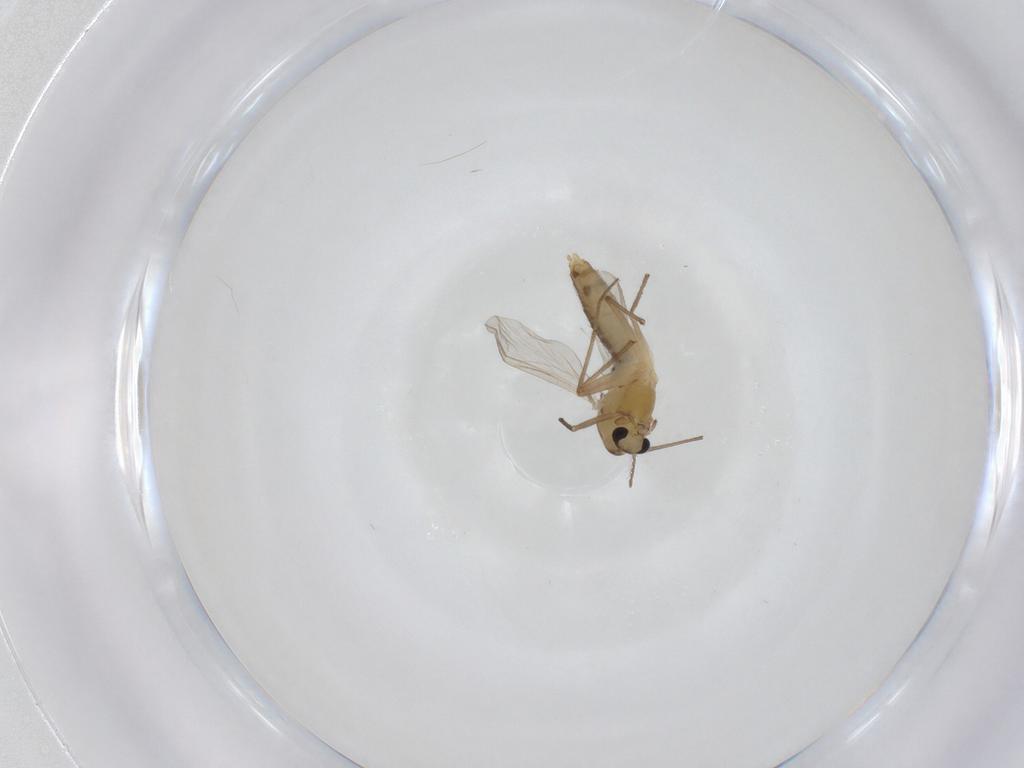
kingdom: Animalia
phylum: Arthropoda
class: Insecta
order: Diptera
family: Chironomidae
